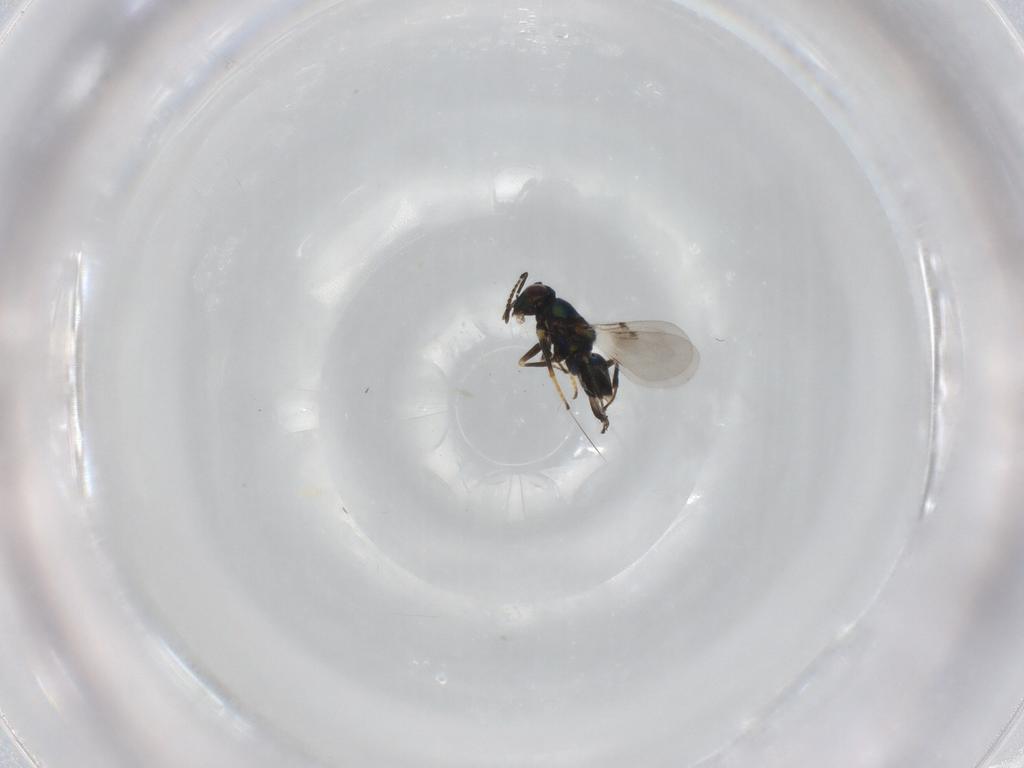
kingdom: Animalia
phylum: Arthropoda
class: Insecta
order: Hymenoptera
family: Encyrtidae
